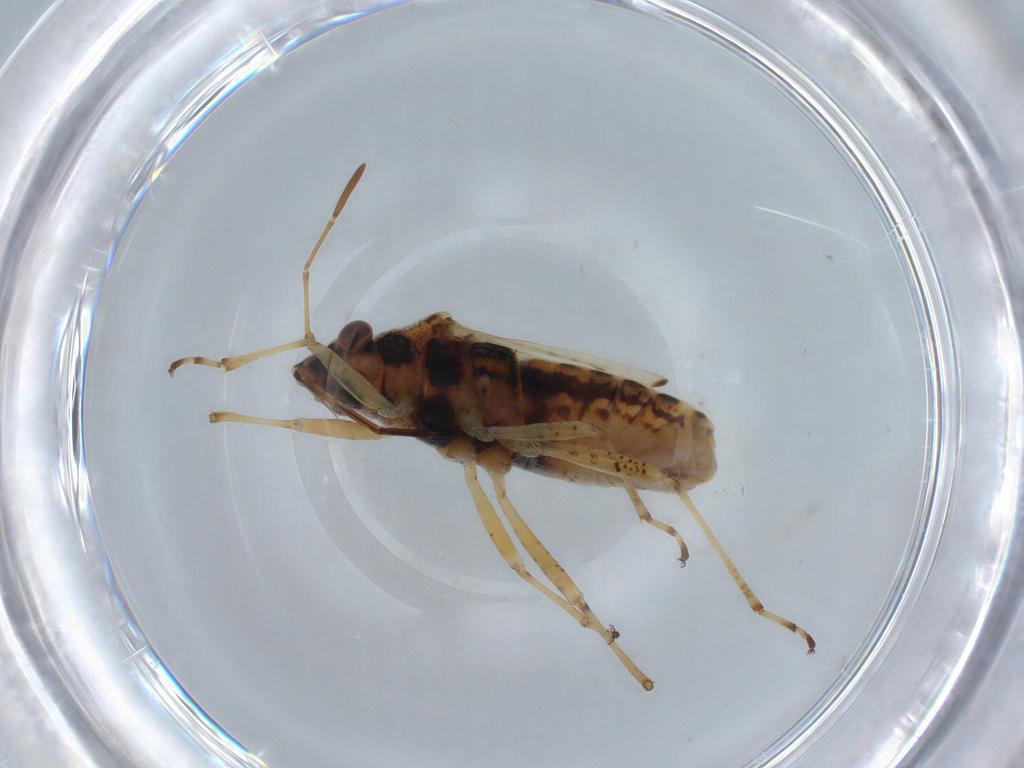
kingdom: Animalia
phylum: Arthropoda
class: Insecta
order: Hemiptera
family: Lygaeidae
